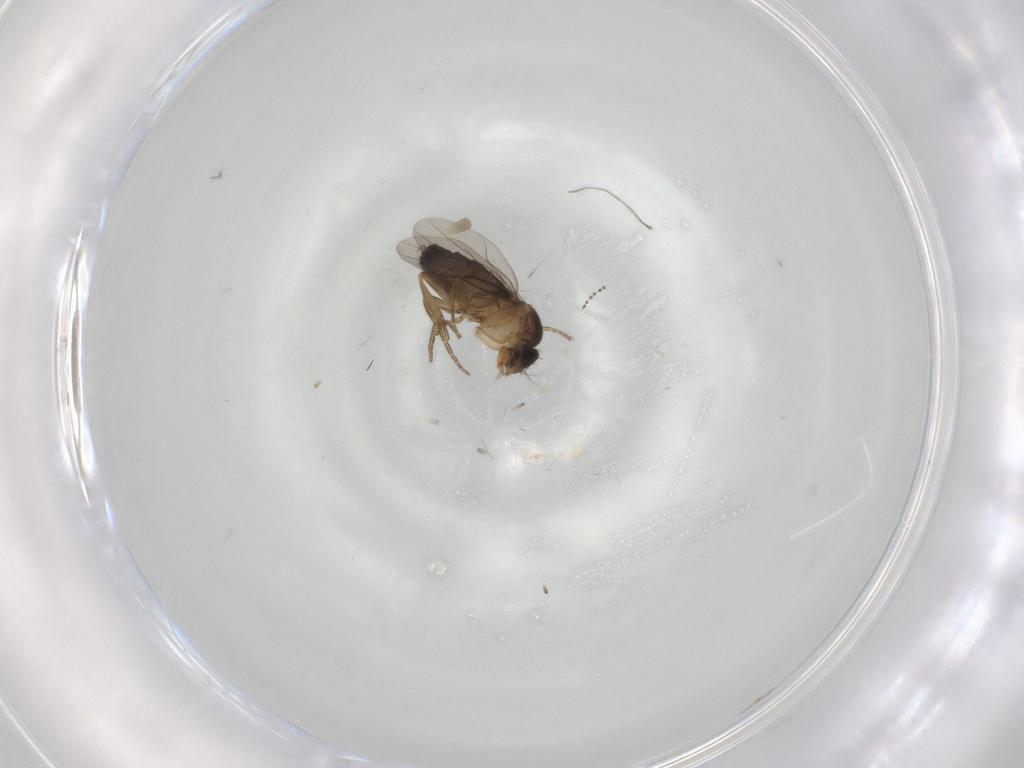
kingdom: Animalia
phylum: Arthropoda
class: Insecta
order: Diptera
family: Phoridae
